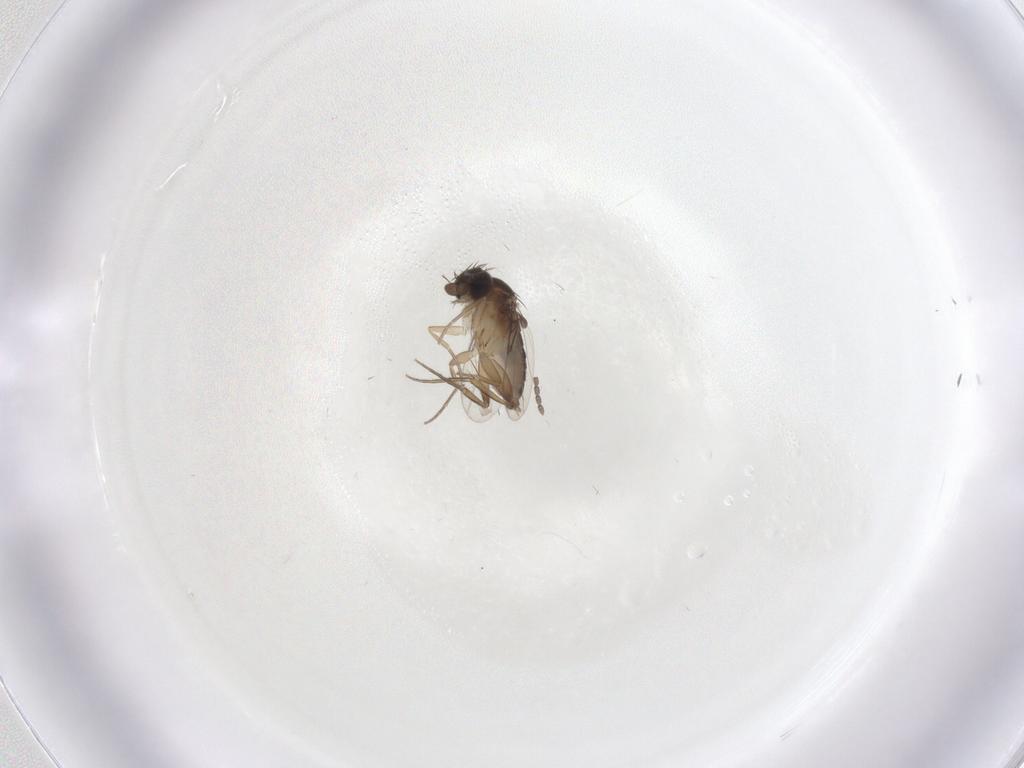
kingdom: Animalia
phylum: Arthropoda
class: Insecta
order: Diptera
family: Phoridae
